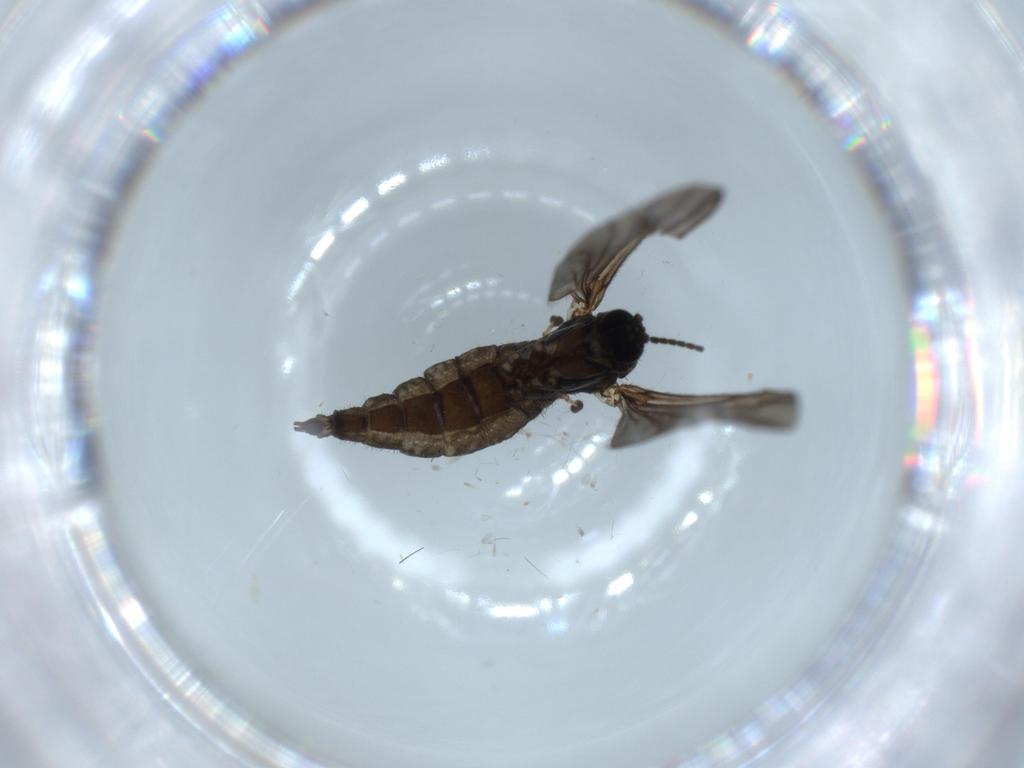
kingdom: Animalia
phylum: Arthropoda
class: Insecta
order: Diptera
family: Sciaridae
